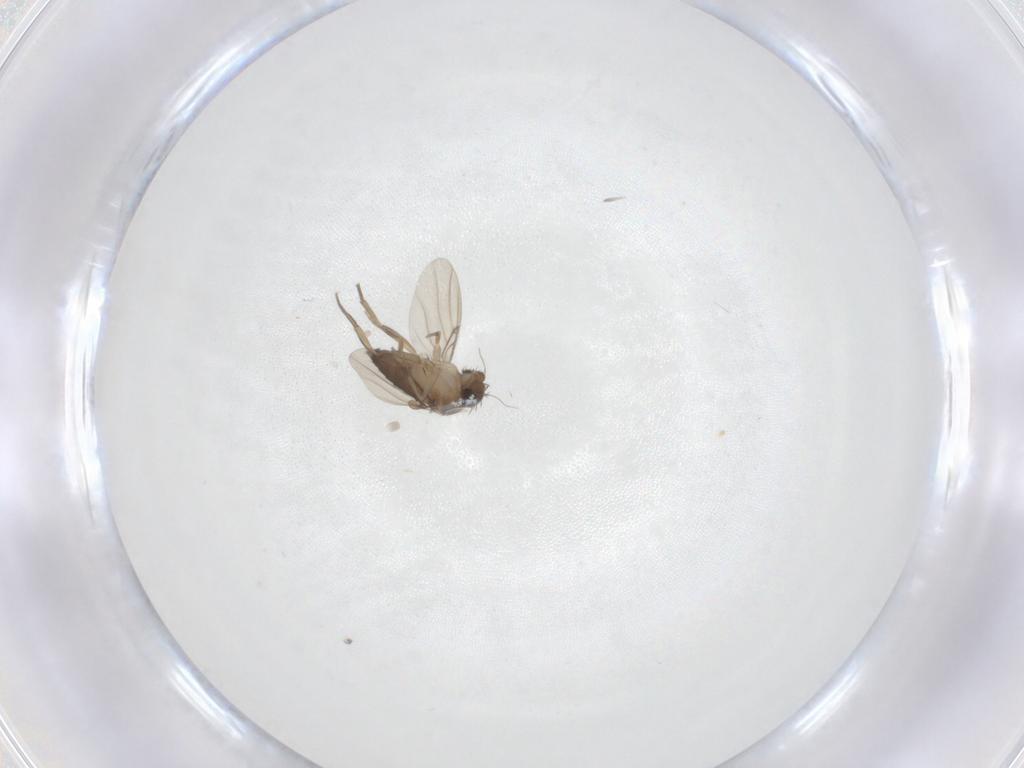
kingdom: Animalia
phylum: Arthropoda
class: Insecta
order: Diptera
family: Phoridae
